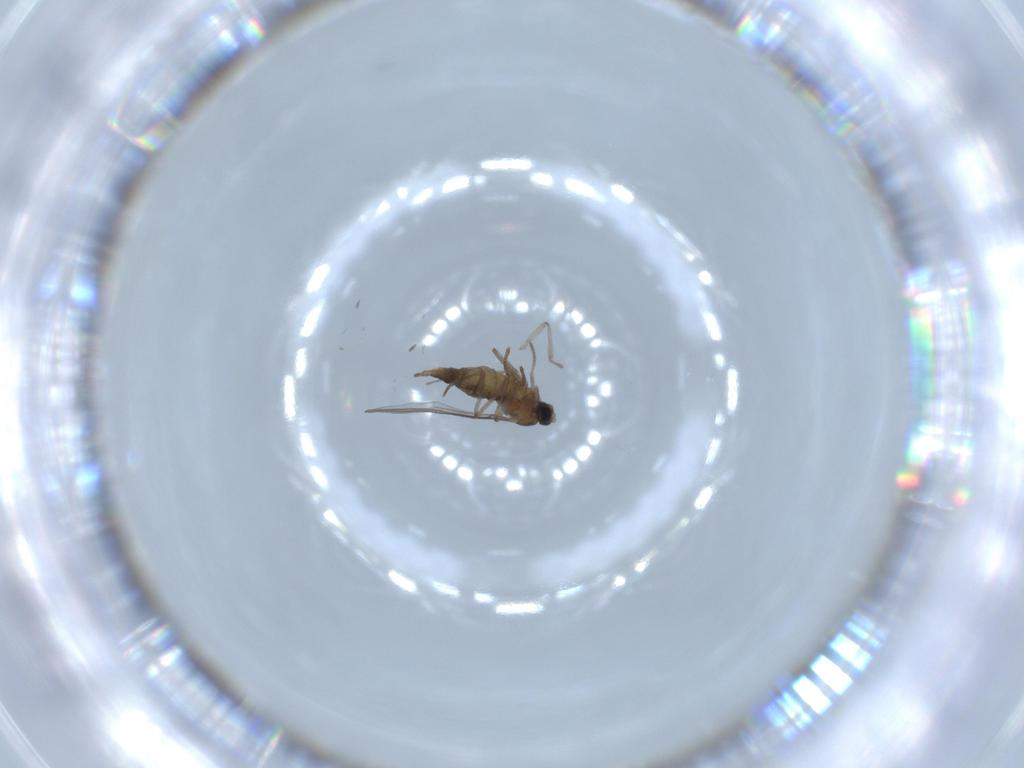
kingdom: Animalia
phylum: Arthropoda
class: Insecta
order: Diptera
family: Cecidomyiidae
